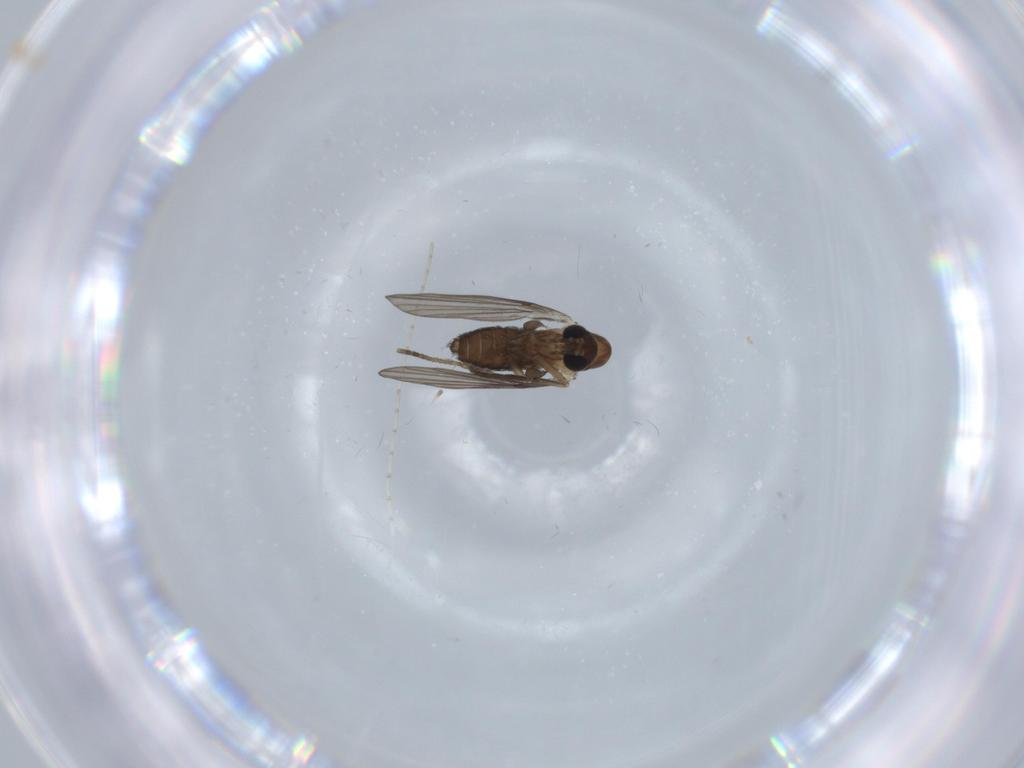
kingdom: Animalia
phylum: Arthropoda
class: Insecta
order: Diptera
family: Psychodidae
